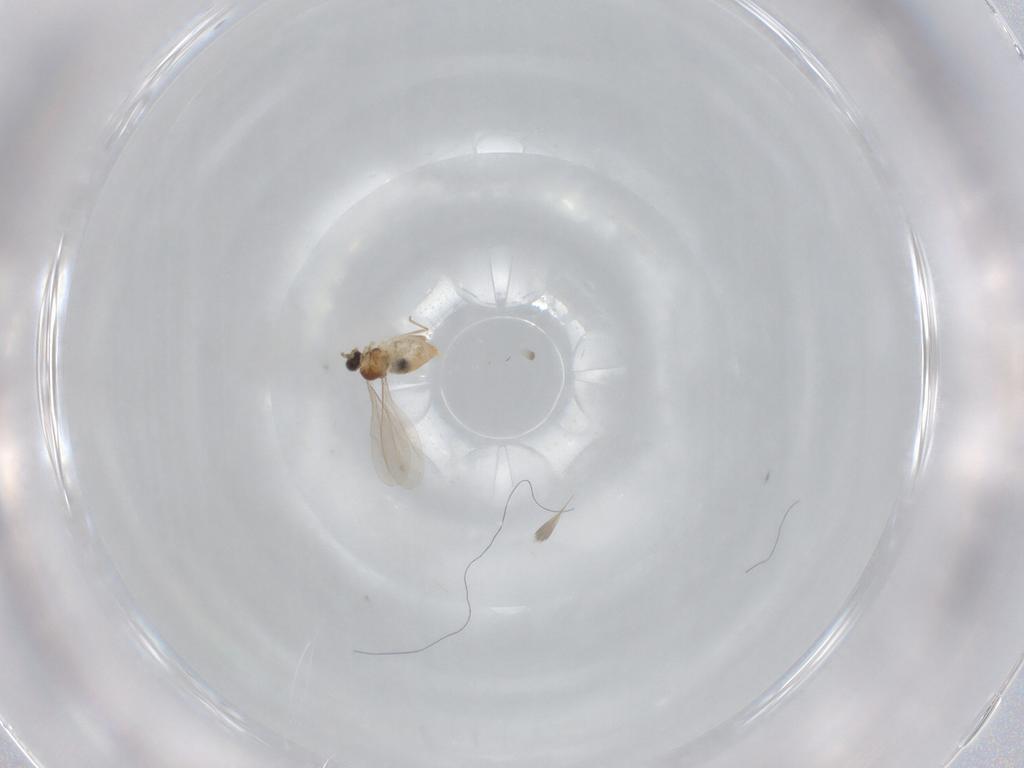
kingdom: Animalia
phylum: Arthropoda
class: Insecta
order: Diptera
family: Cecidomyiidae
